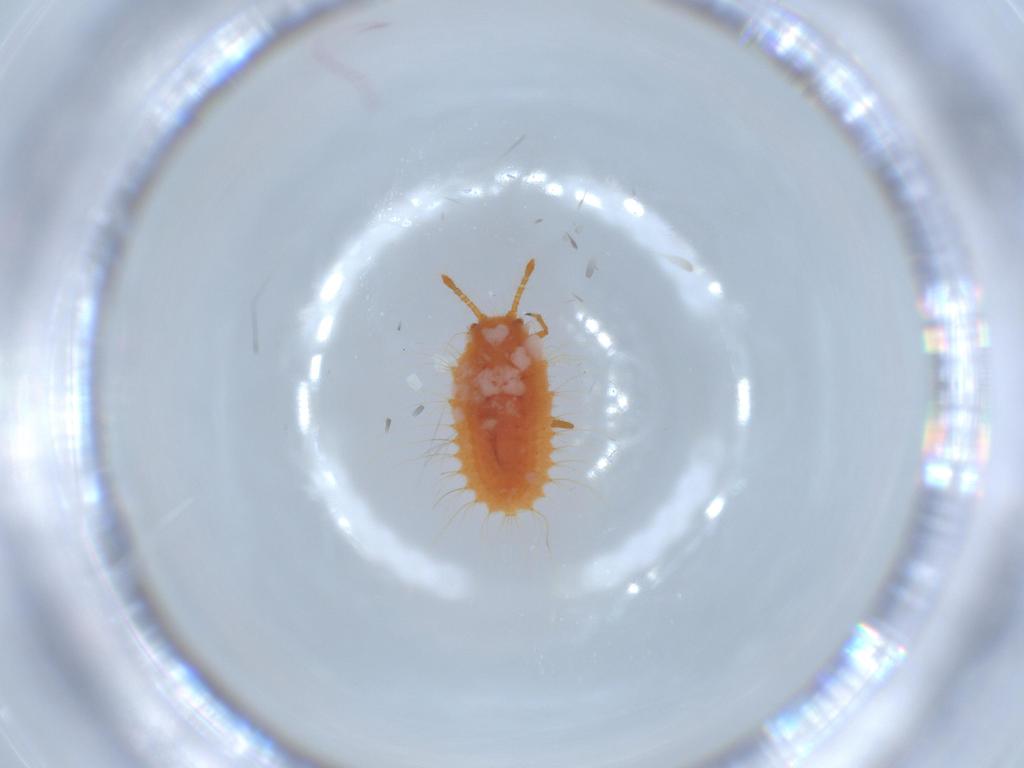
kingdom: Animalia
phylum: Arthropoda
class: Insecta
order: Hemiptera
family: Coccoidea_incertae_sedis
